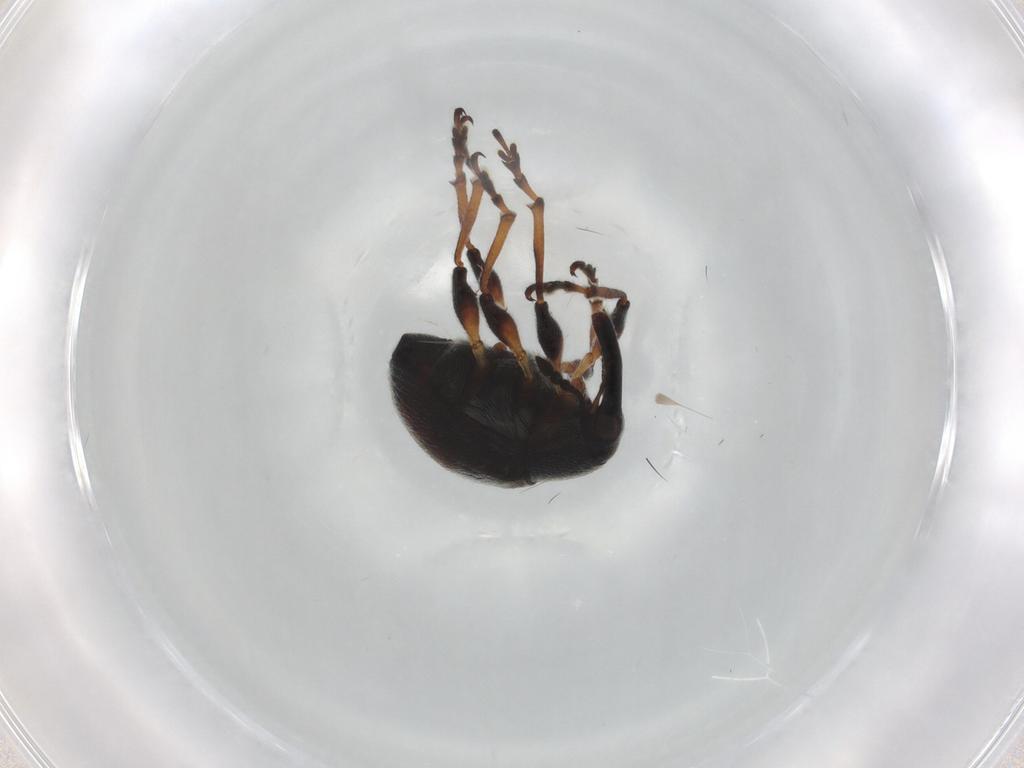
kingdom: Animalia
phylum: Arthropoda
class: Insecta
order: Coleoptera
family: Brentidae
